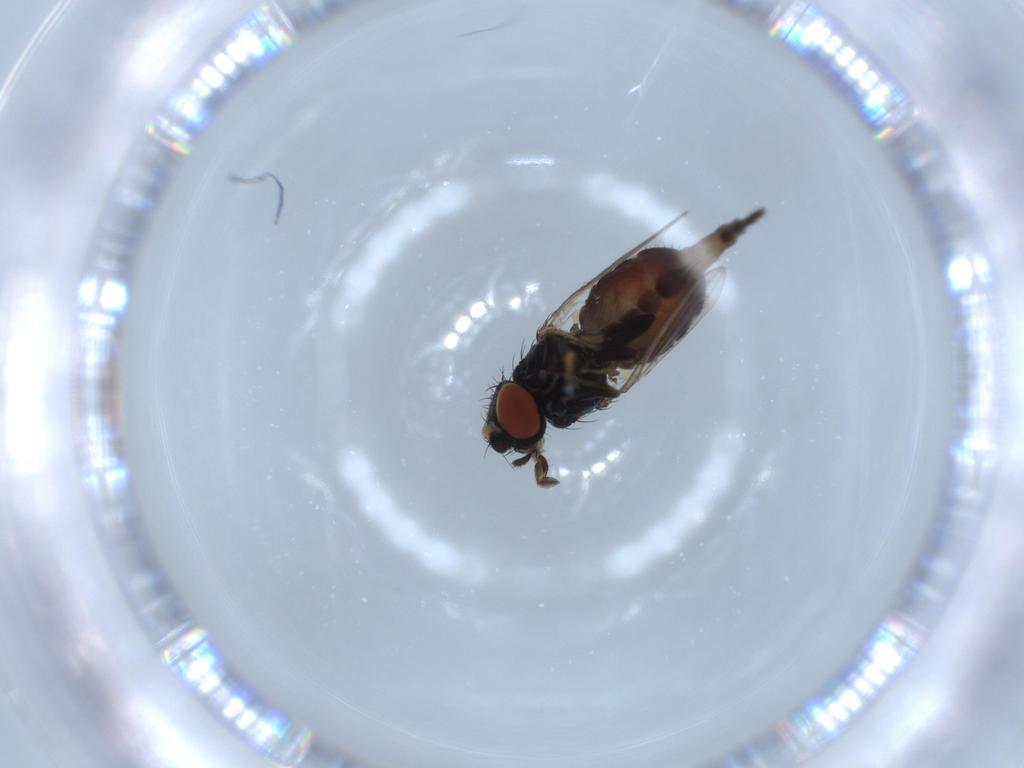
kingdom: Animalia
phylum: Arthropoda
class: Insecta
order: Diptera
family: Milichiidae
